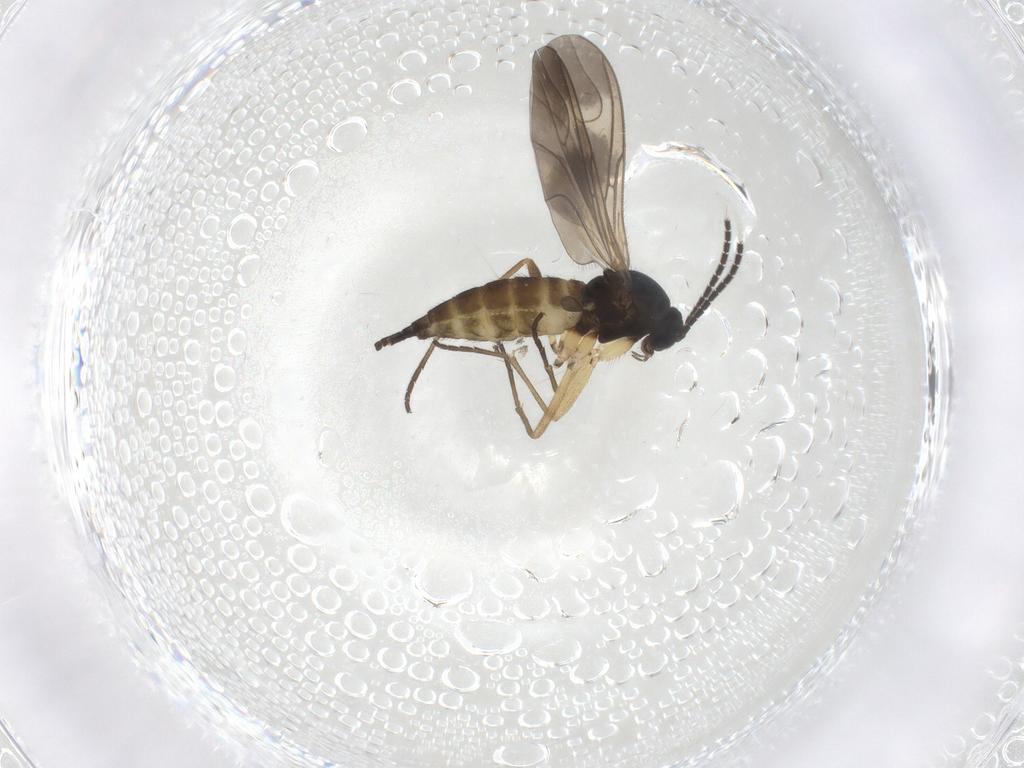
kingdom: Animalia
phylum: Arthropoda
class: Insecta
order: Diptera
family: Sciaridae
